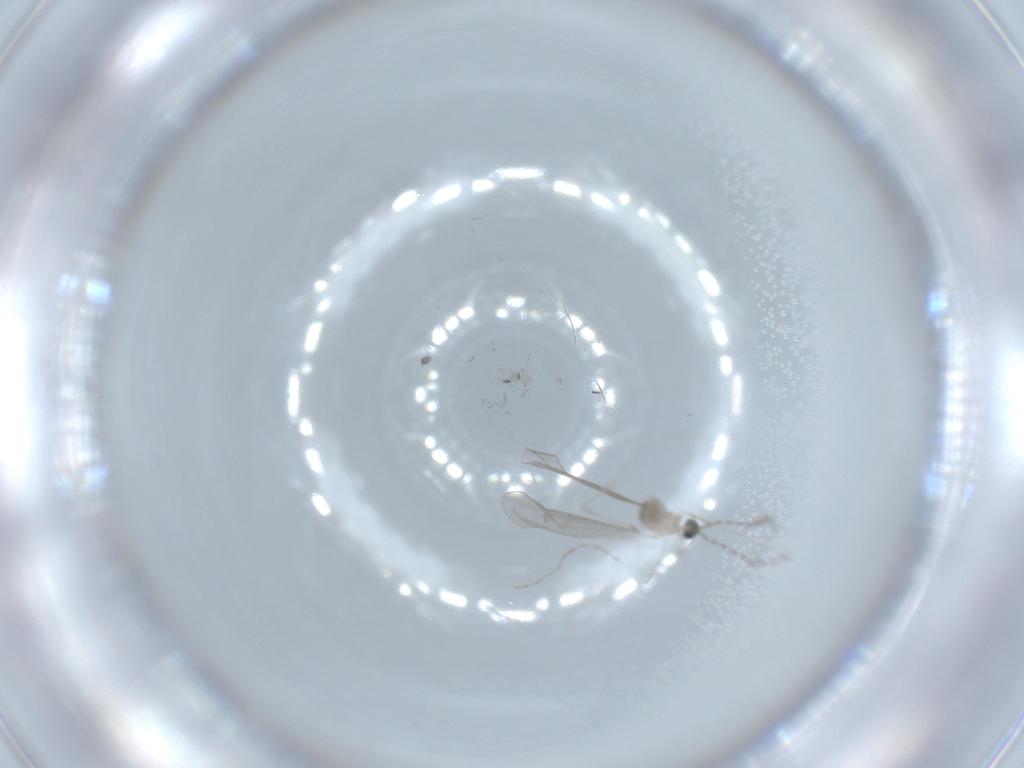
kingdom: Animalia
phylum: Arthropoda
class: Insecta
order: Diptera
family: Cecidomyiidae
